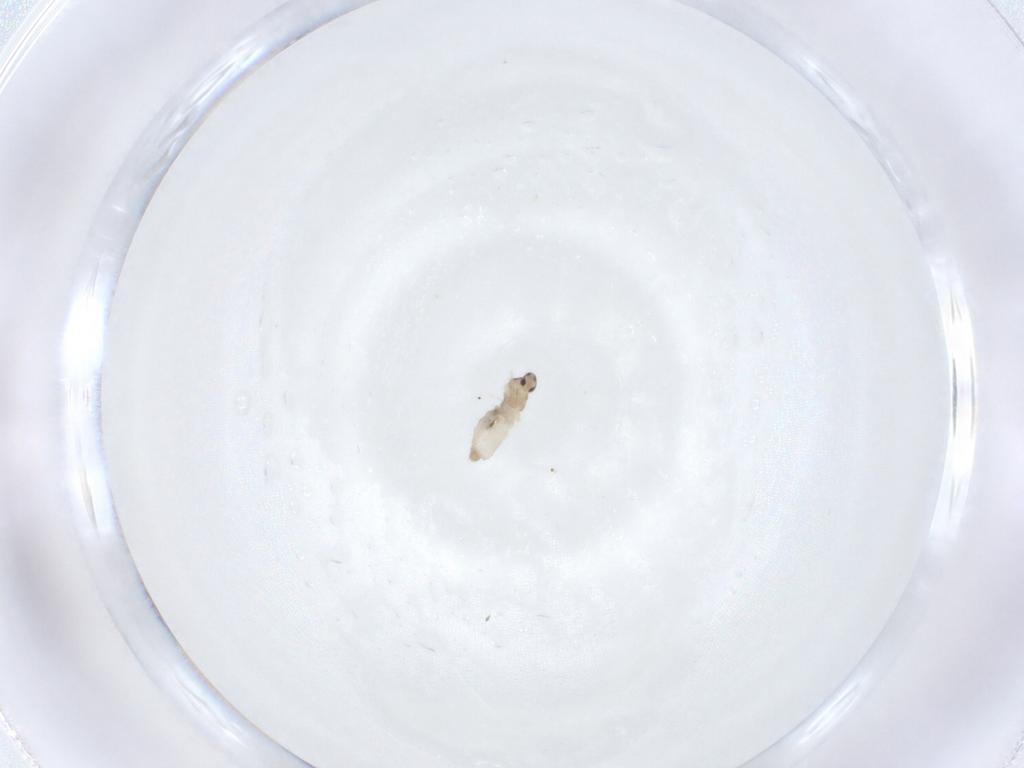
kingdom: Animalia
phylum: Arthropoda
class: Insecta
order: Diptera
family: Cecidomyiidae
